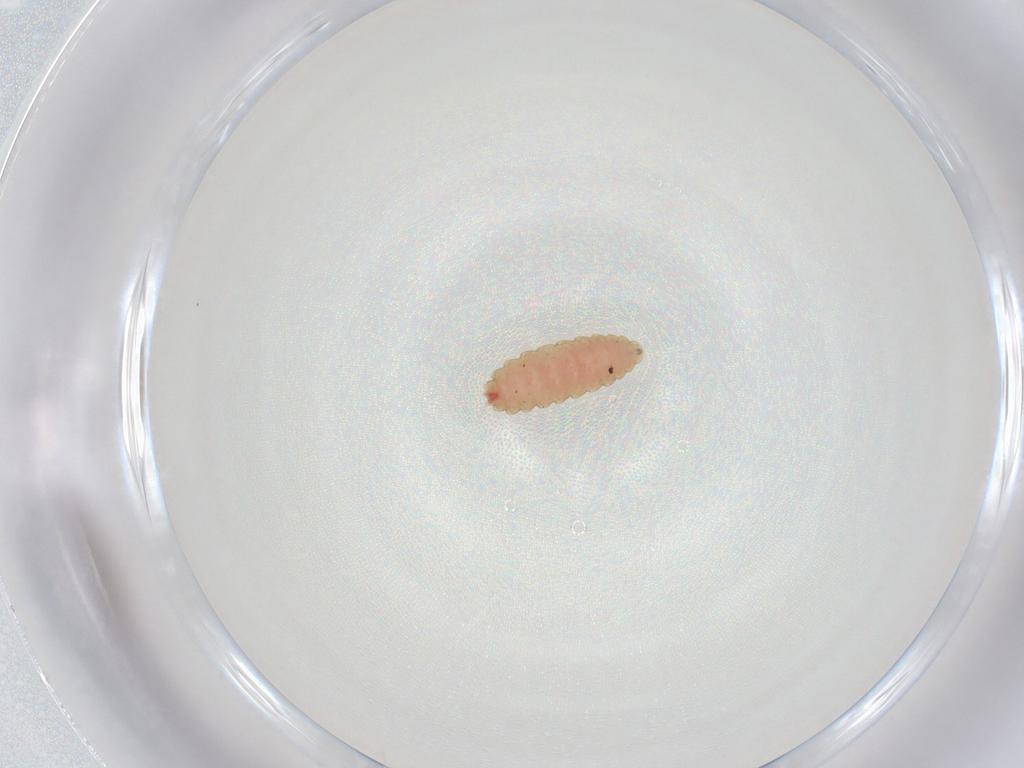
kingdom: Animalia
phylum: Arthropoda
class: Insecta
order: Diptera
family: Cecidomyiidae
